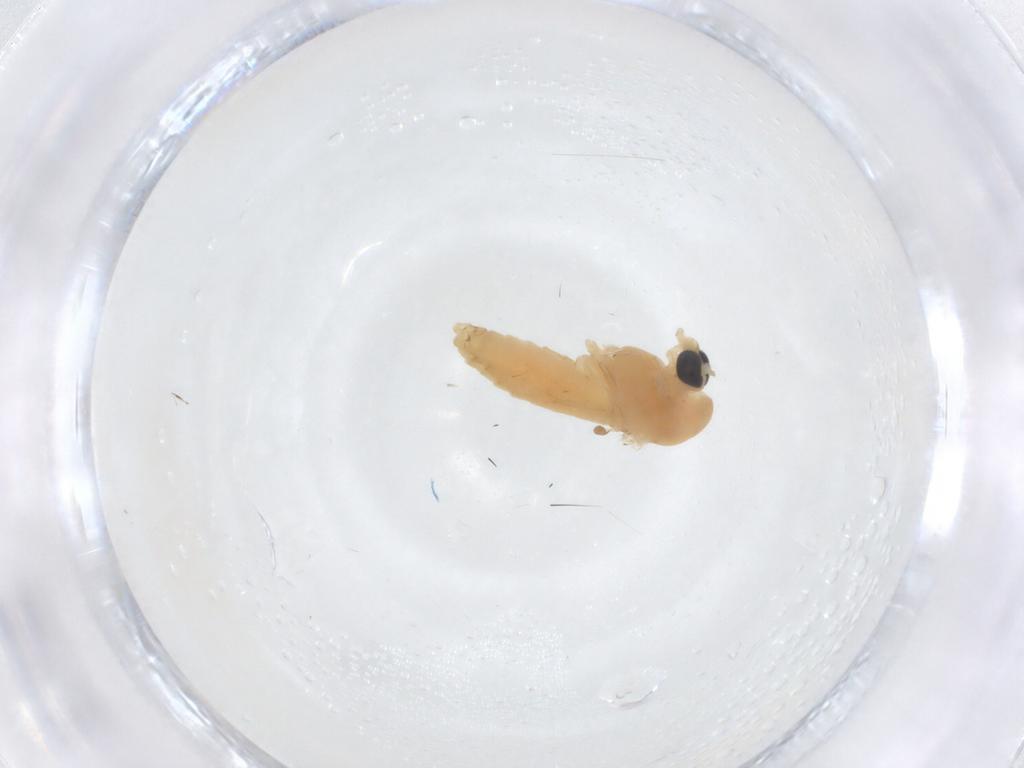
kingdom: Animalia
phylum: Arthropoda
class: Insecta
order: Diptera
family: Chironomidae
